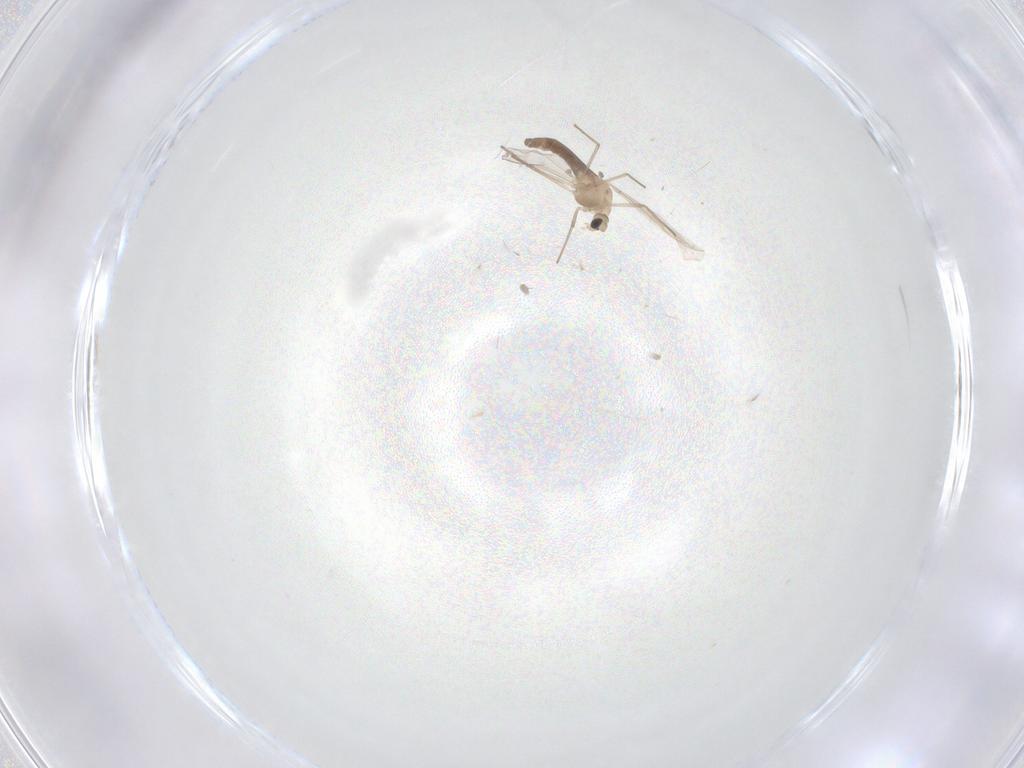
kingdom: Animalia
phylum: Arthropoda
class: Insecta
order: Diptera
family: Chironomidae
